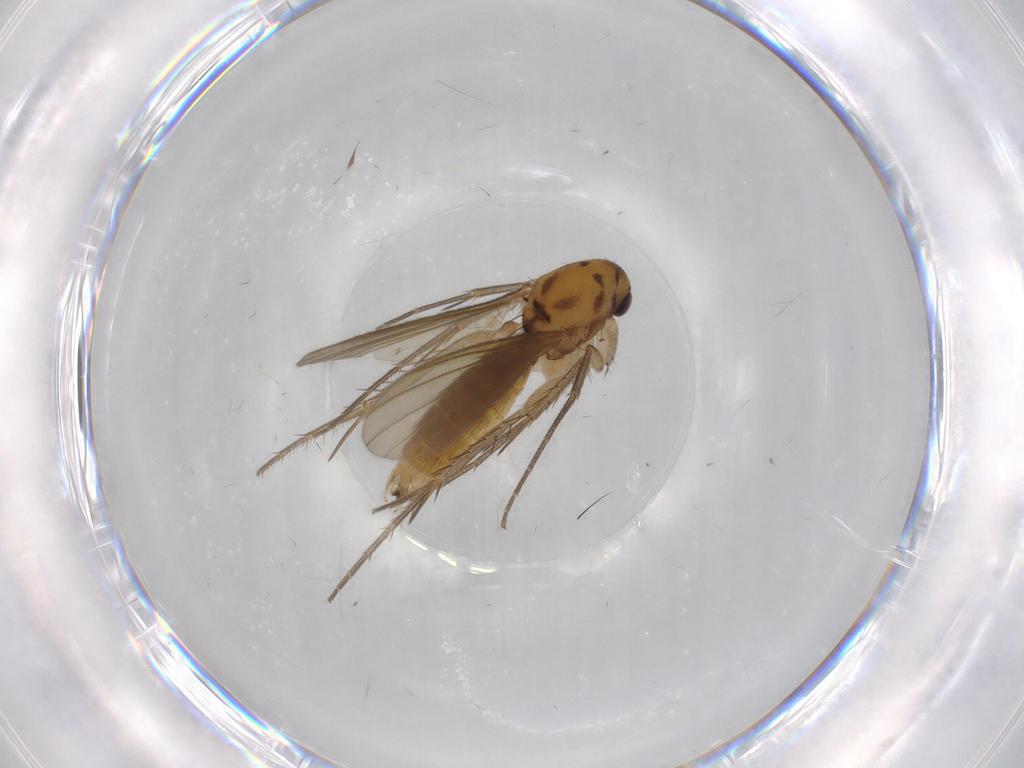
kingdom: Animalia
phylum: Arthropoda
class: Insecta
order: Diptera
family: Mycetophilidae
